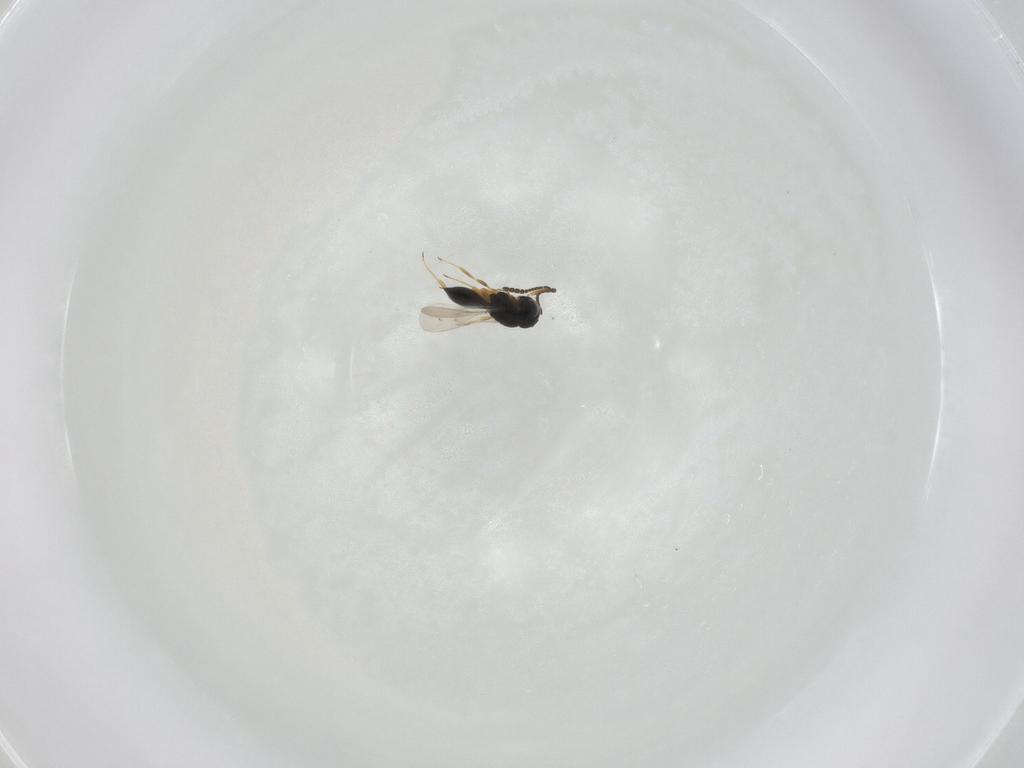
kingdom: Animalia
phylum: Arthropoda
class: Insecta
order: Hymenoptera
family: Scelionidae
